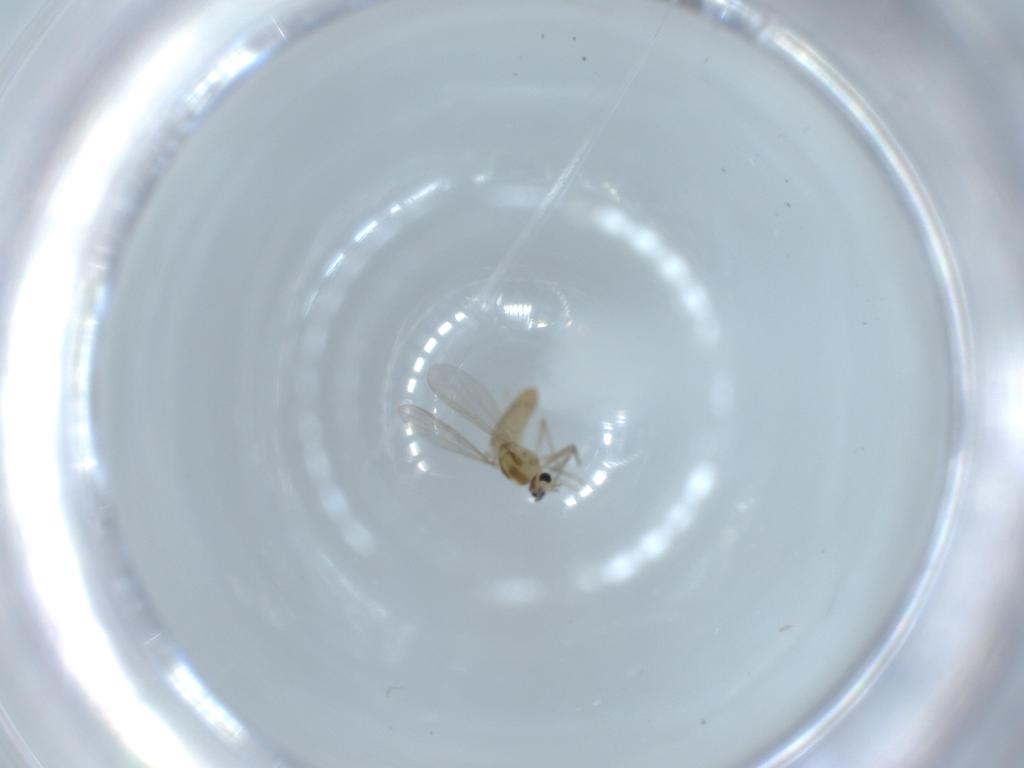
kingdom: Animalia
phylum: Arthropoda
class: Insecta
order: Diptera
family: Chironomidae
